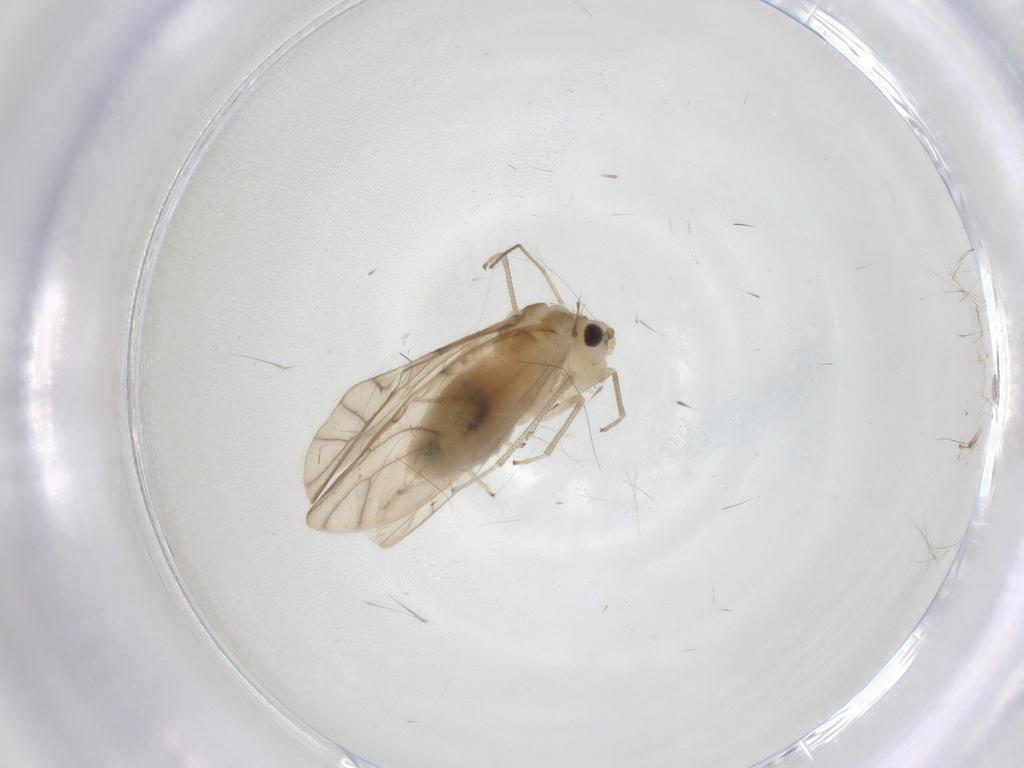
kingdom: Animalia
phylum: Arthropoda
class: Insecta
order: Psocodea
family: Caeciliusidae
